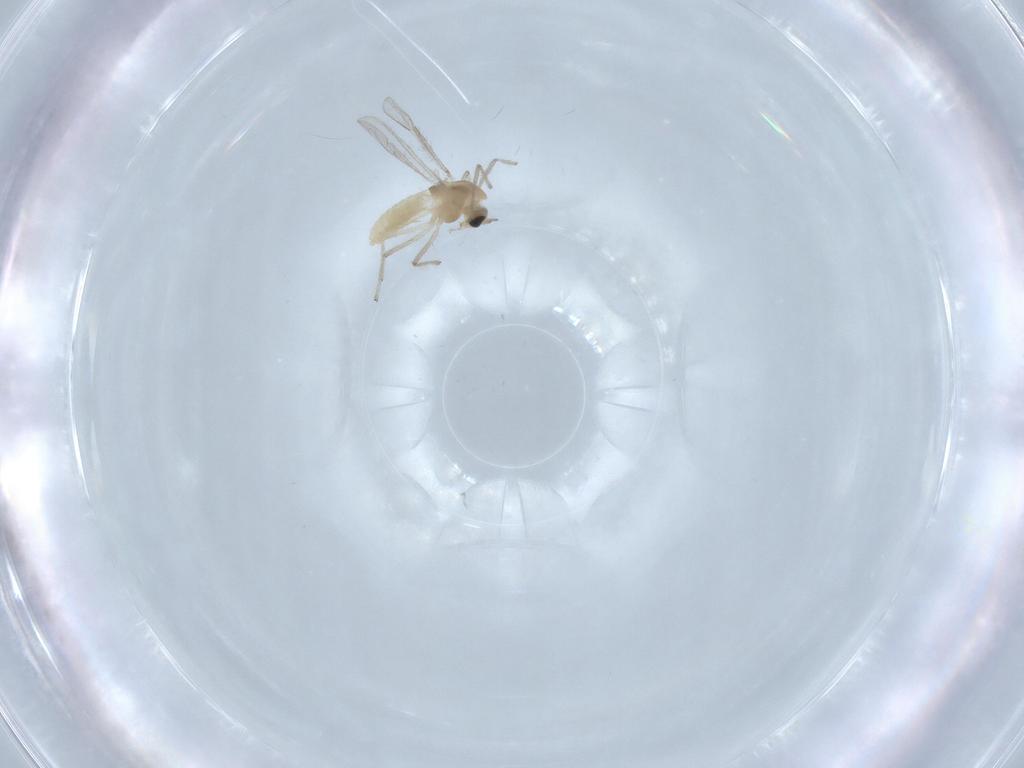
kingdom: Animalia
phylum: Arthropoda
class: Insecta
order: Diptera
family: Chironomidae
